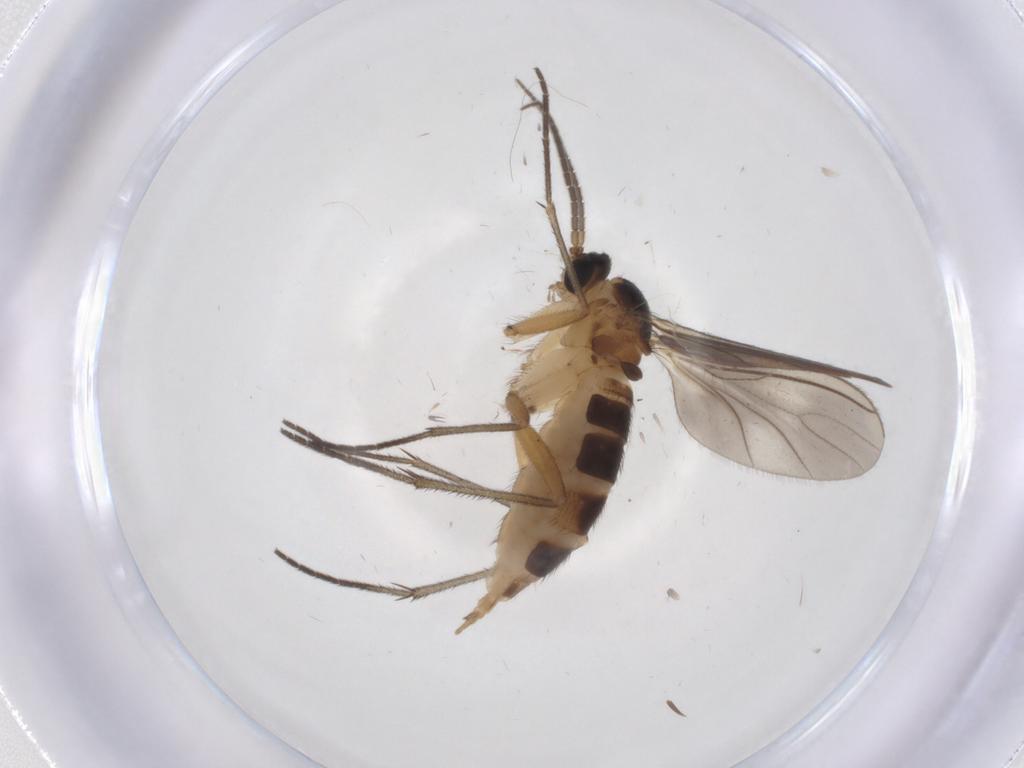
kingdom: Animalia
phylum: Arthropoda
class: Insecta
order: Diptera
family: Sciaridae
